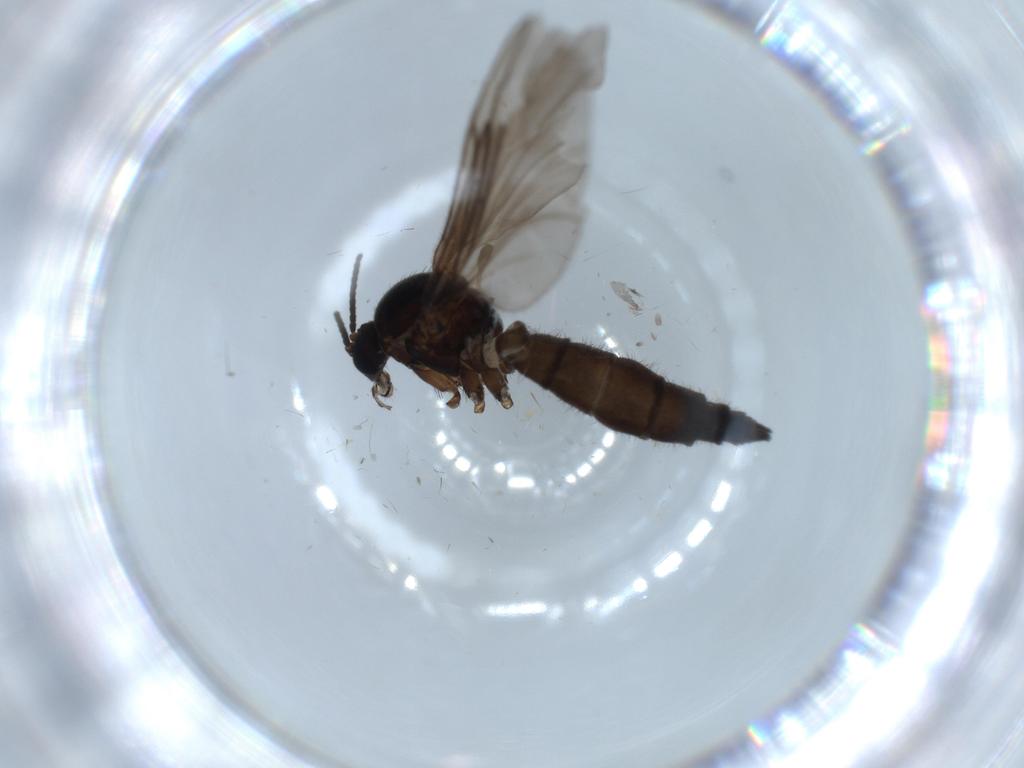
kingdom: Animalia
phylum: Arthropoda
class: Insecta
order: Diptera
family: Sciaridae
